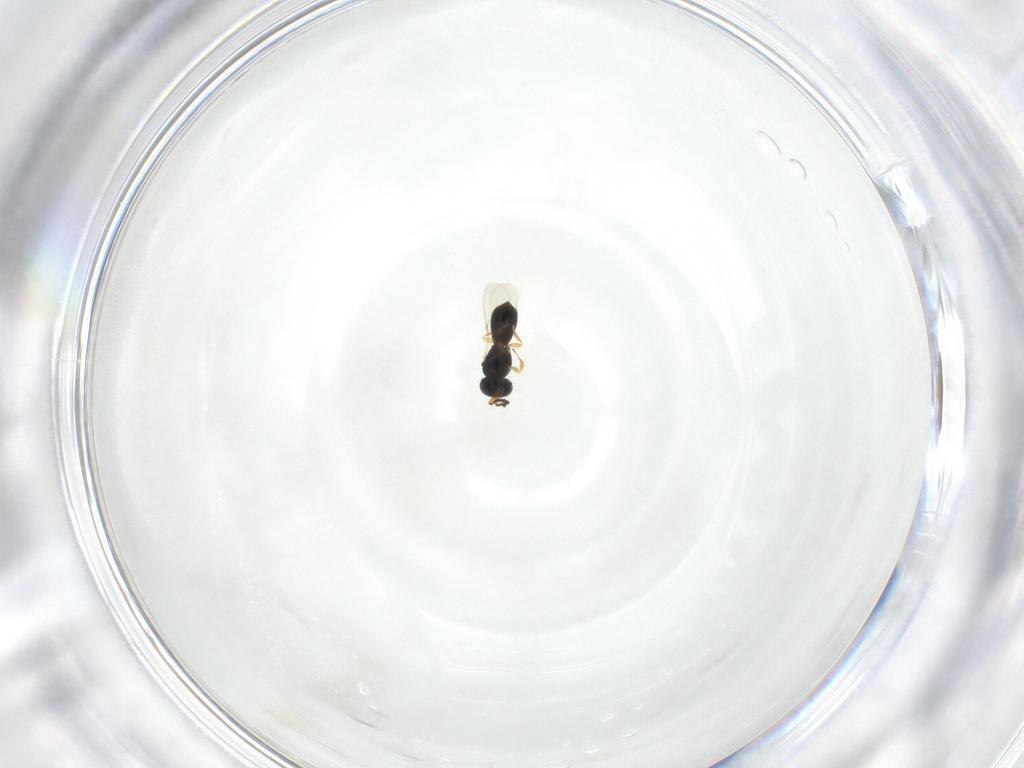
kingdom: Animalia
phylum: Arthropoda
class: Insecta
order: Hymenoptera
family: Scelionidae
